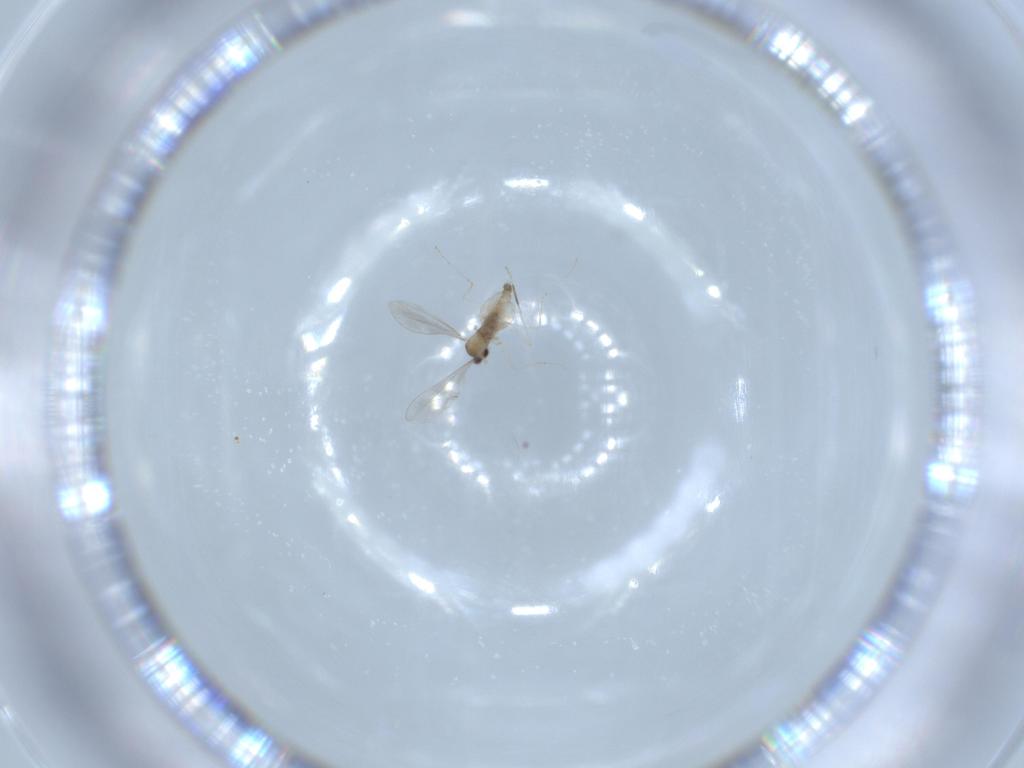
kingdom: Animalia
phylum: Arthropoda
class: Insecta
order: Diptera
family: Cecidomyiidae
